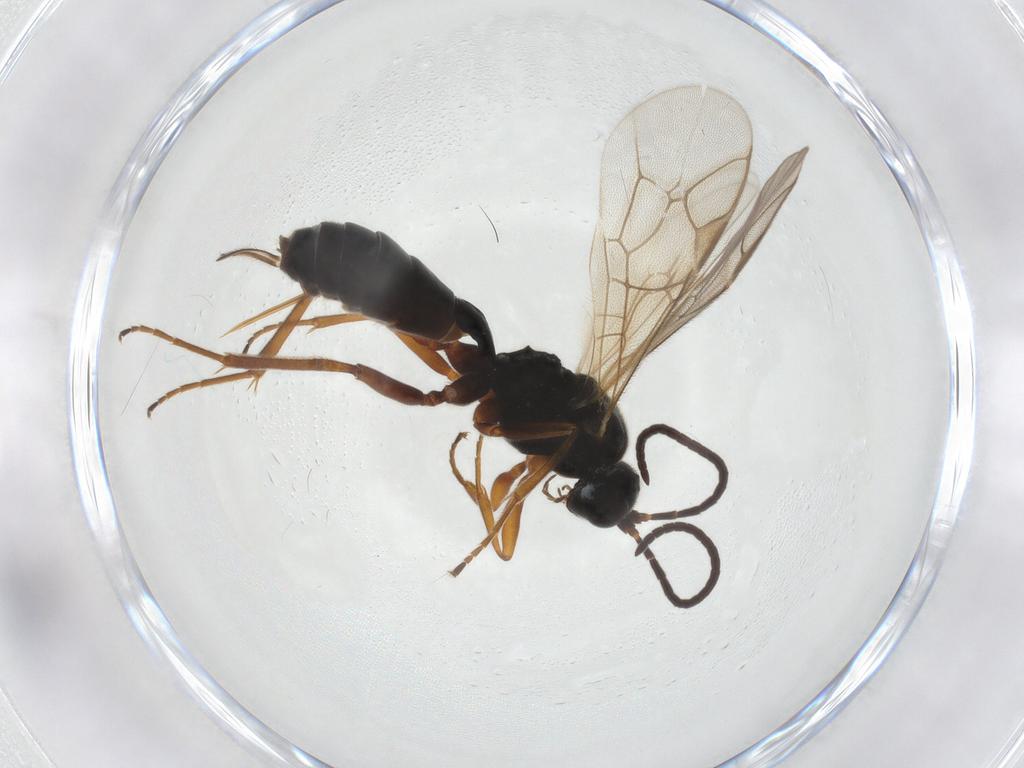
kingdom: Animalia
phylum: Arthropoda
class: Insecta
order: Hymenoptera
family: Ichneumonidae
